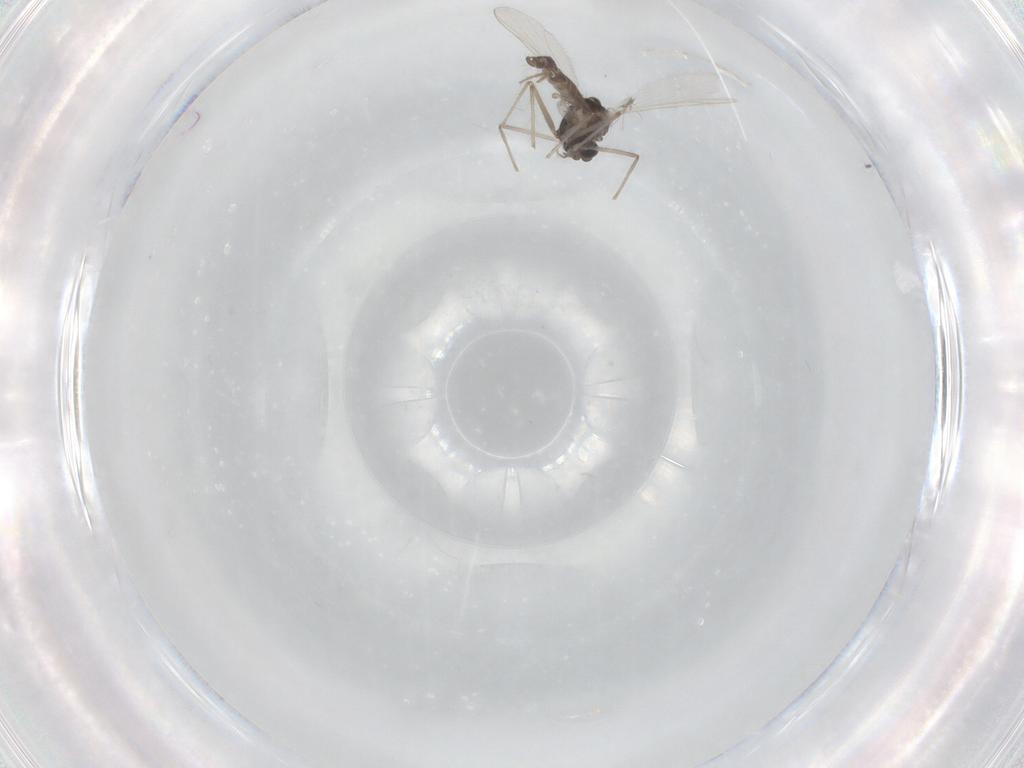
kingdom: Animalia
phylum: Arthropoda
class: Insecta
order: Diptera
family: Chironomidae
